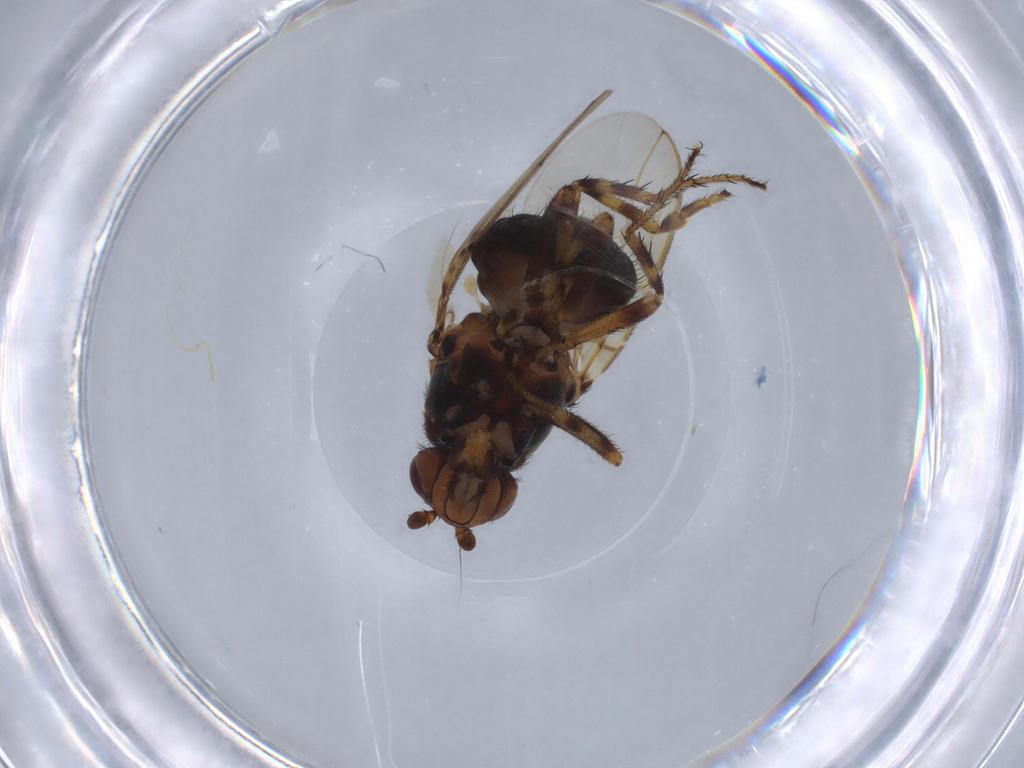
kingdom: Animalia
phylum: Arthropoda
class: Insecta
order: Diptera
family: Sphaeroceridae
